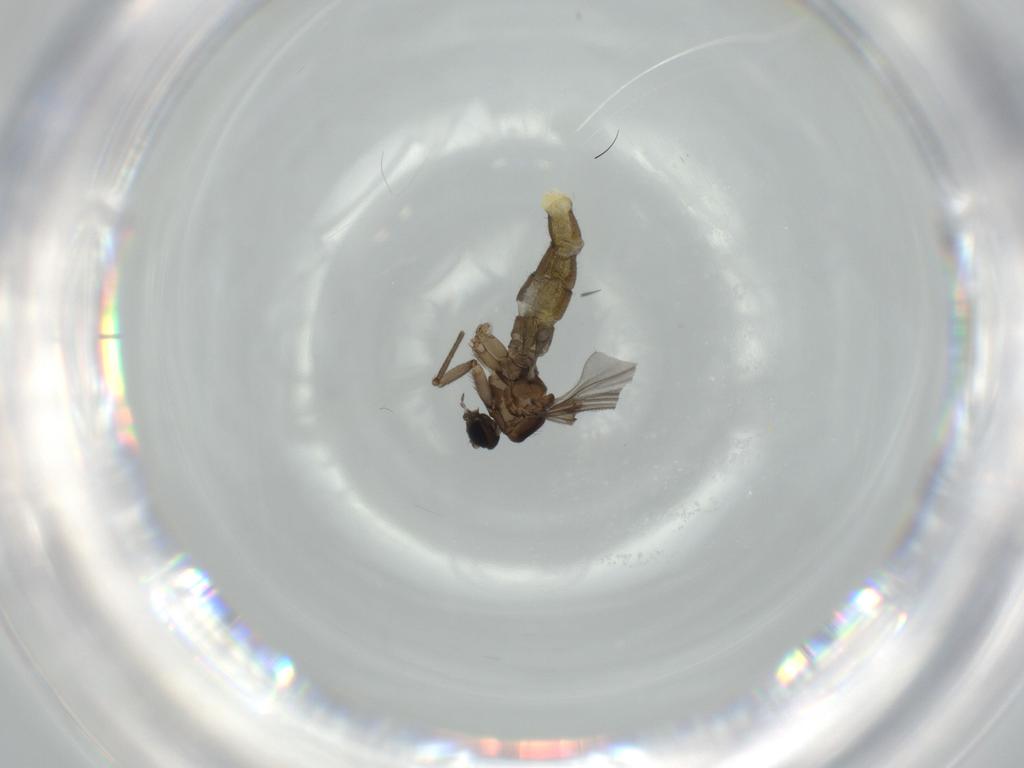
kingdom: Animalia
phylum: Arthropoda
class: Insecta
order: Diptera
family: Sciaridae
